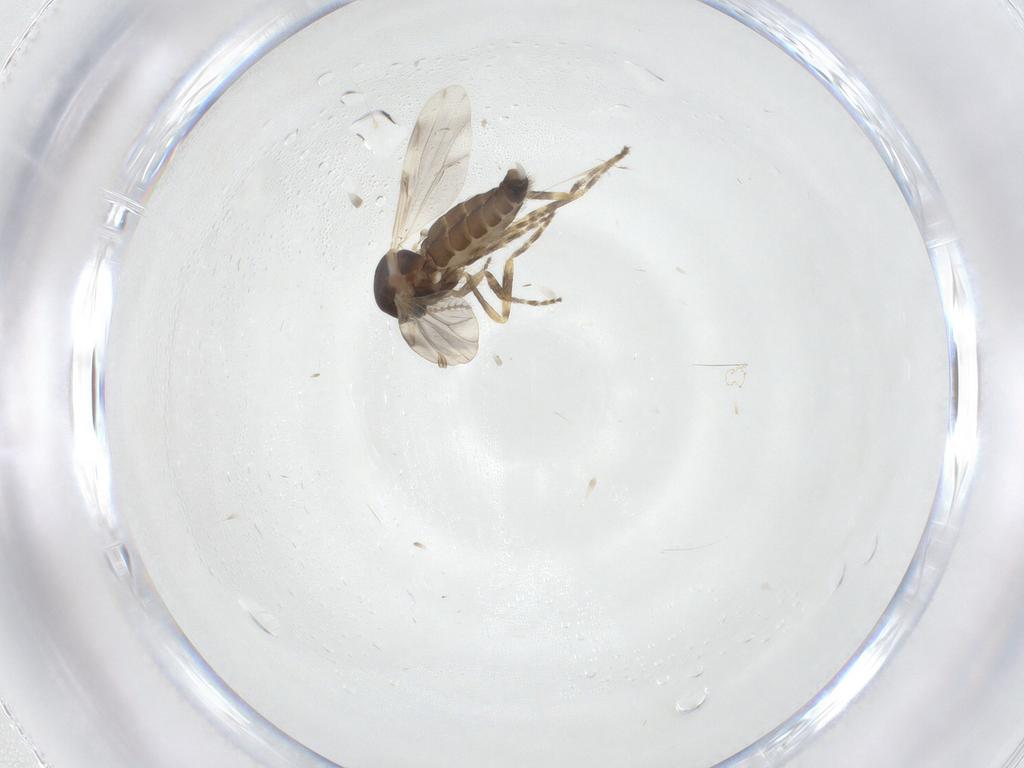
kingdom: Animalia
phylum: Arthropoda
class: Insecta
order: Diptera
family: Ceratopogonidae
